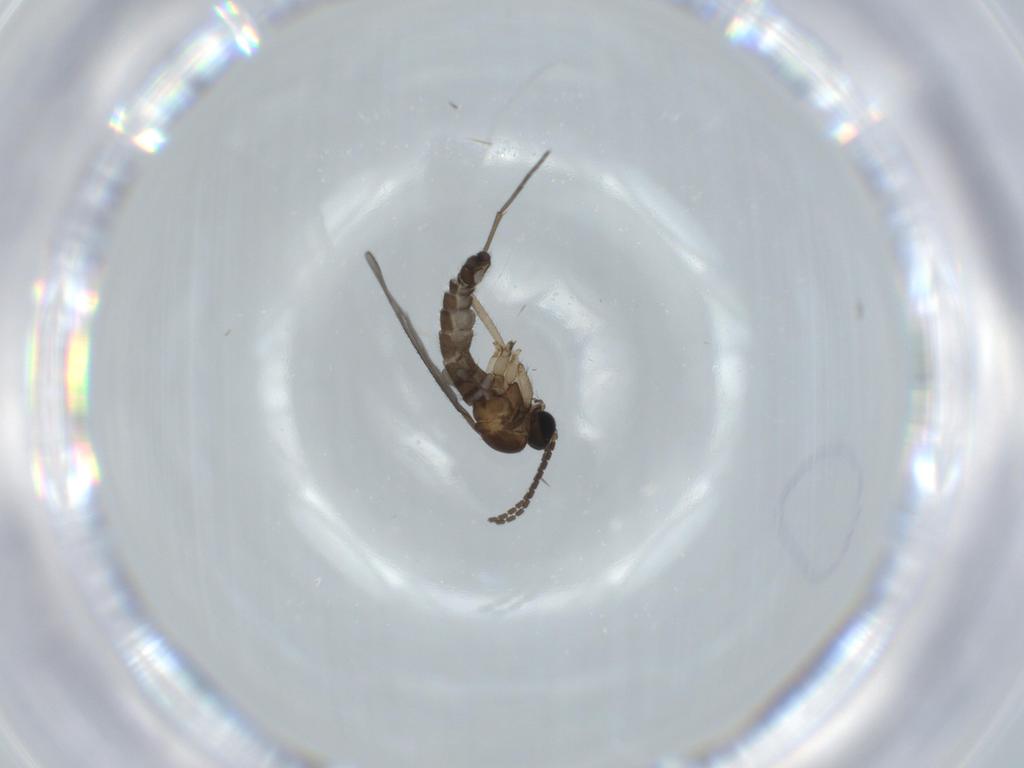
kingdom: Animalia
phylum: Arthropoda
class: Insecta
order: Diptera
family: Sciaridae
